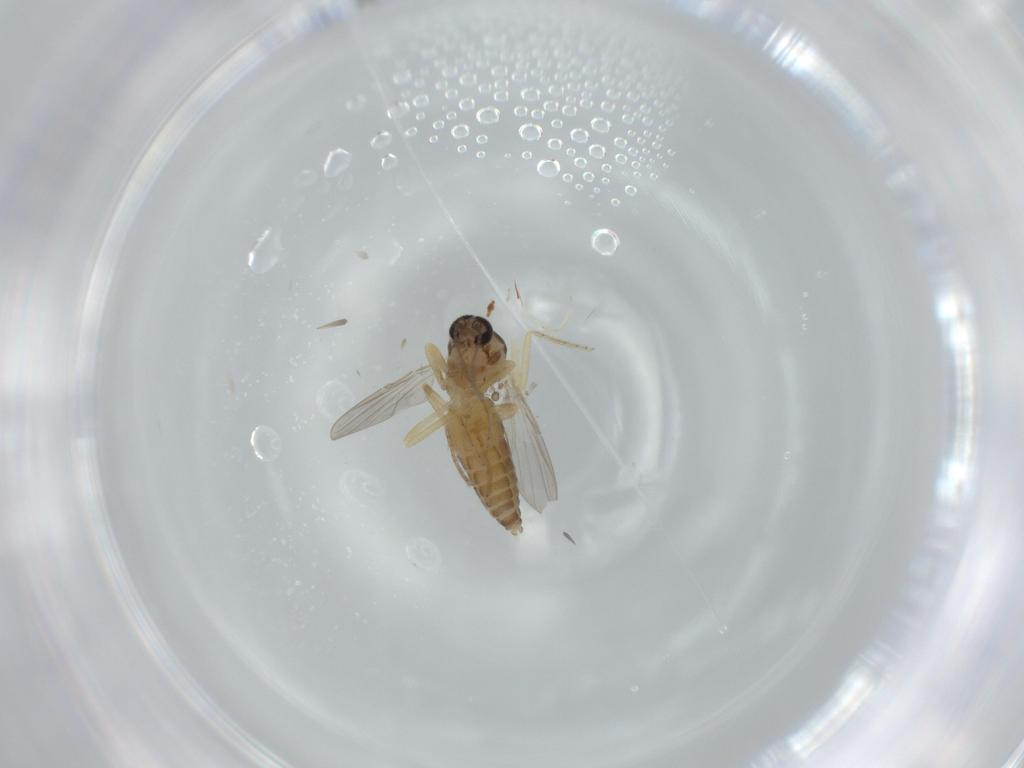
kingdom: Animalia
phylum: Arthropoda
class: Insecta
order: Diptera
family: Ceratopogonidae
